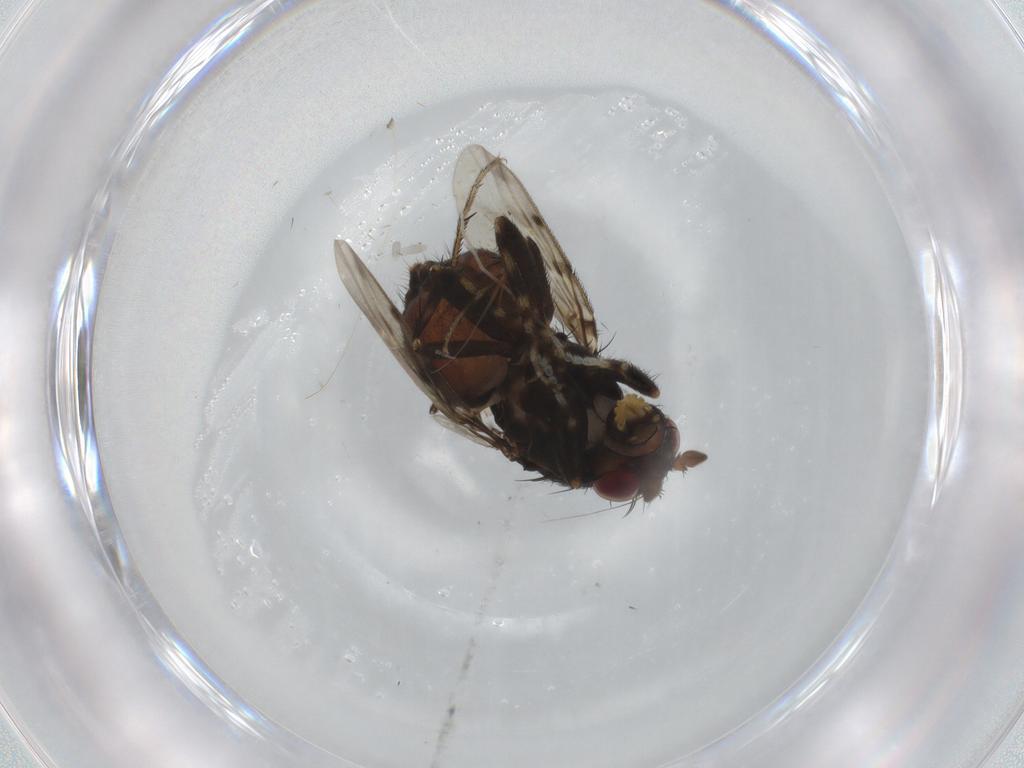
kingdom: Animalia
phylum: Arthropoda
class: Insecta
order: Diptera
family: Sphaeroceridae
